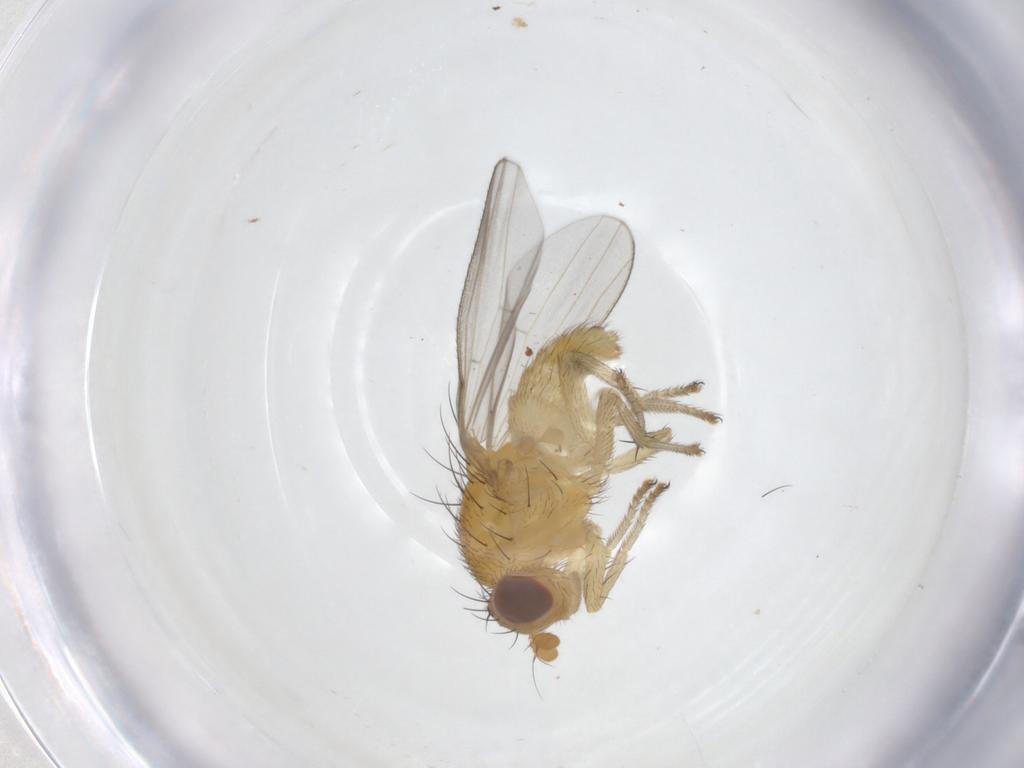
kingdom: Animalia
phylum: Arthropoda
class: Insecta
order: Diptera
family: Lauxaniidae
